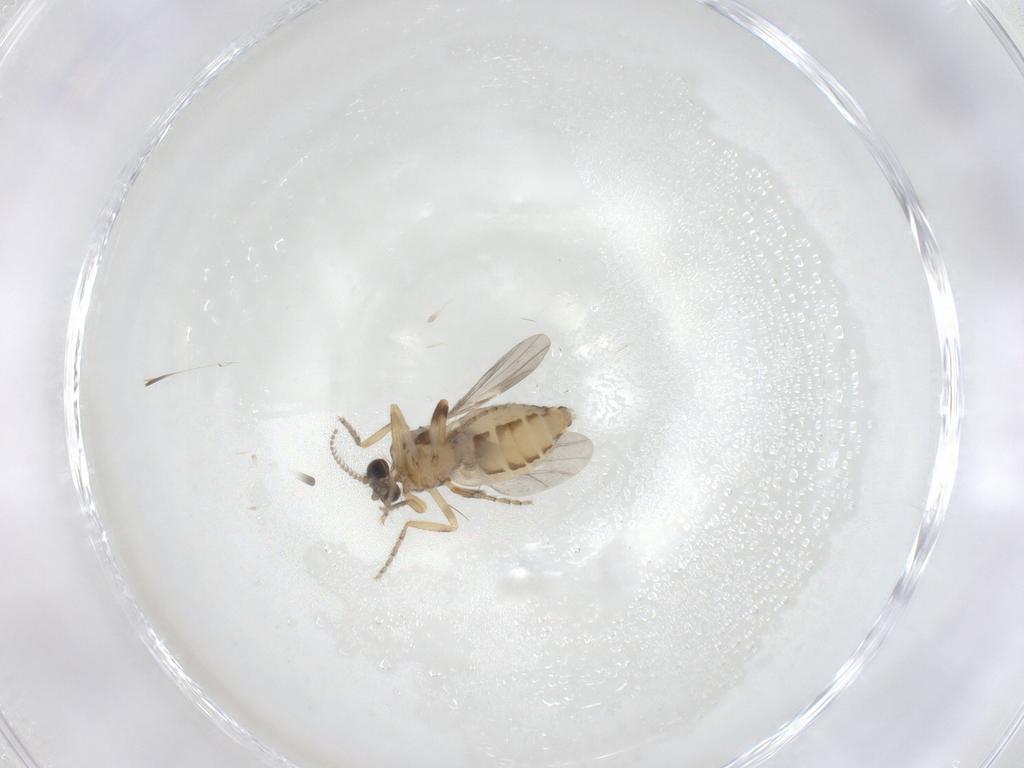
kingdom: Animalia
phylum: Arthropoda
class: Insecta
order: Diptera
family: Ceratopogonidae
